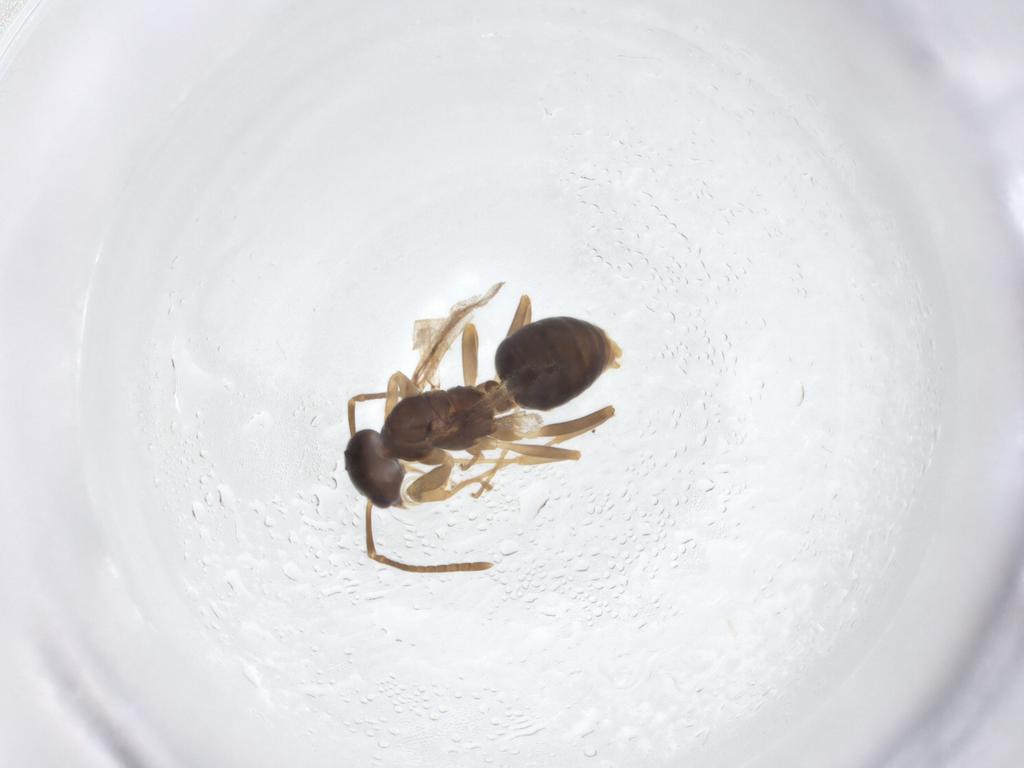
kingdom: Animalia
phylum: Arthropoda
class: Insecta
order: Hymenoptera
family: Formicidae
